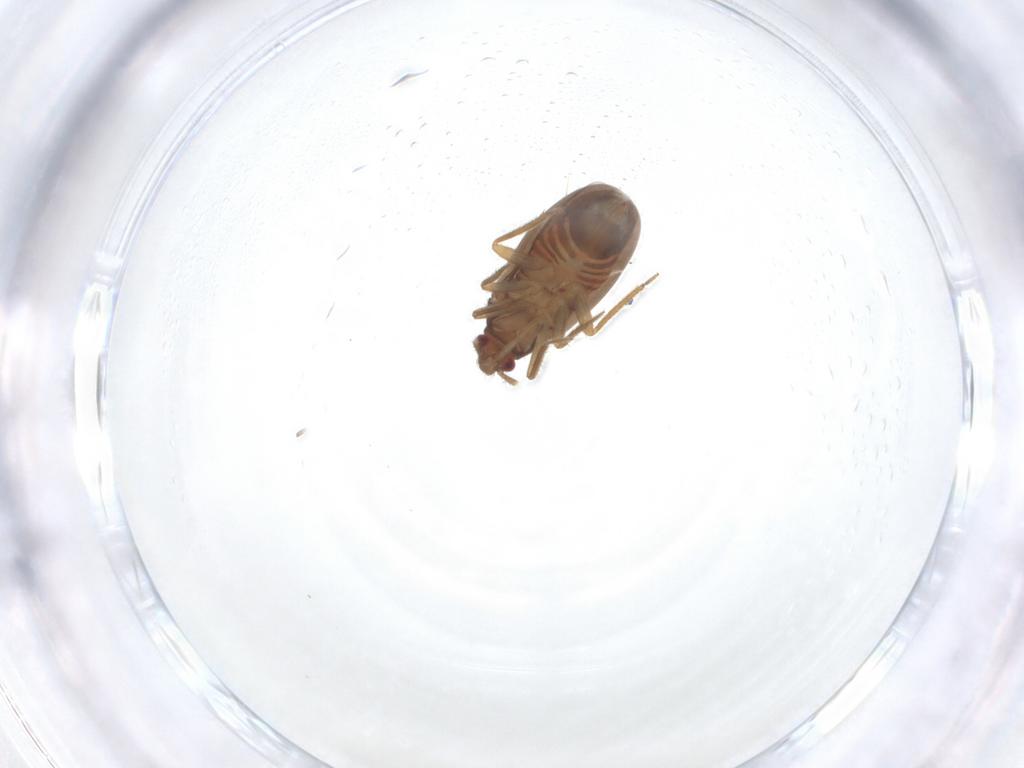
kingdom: Animalia
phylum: Arthropoda
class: Insecta
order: Hemiptera
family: Ceratocombidae
